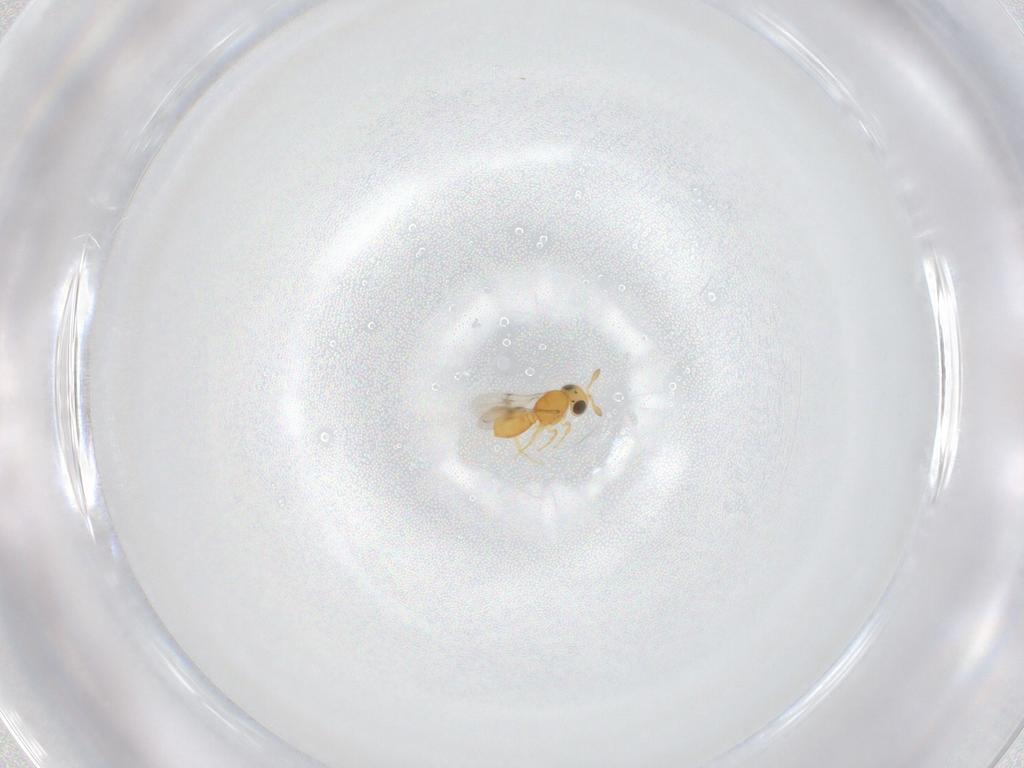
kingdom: Animalia
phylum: Arthropoda
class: Insecta
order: Hymenoptera
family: Scelionidae
